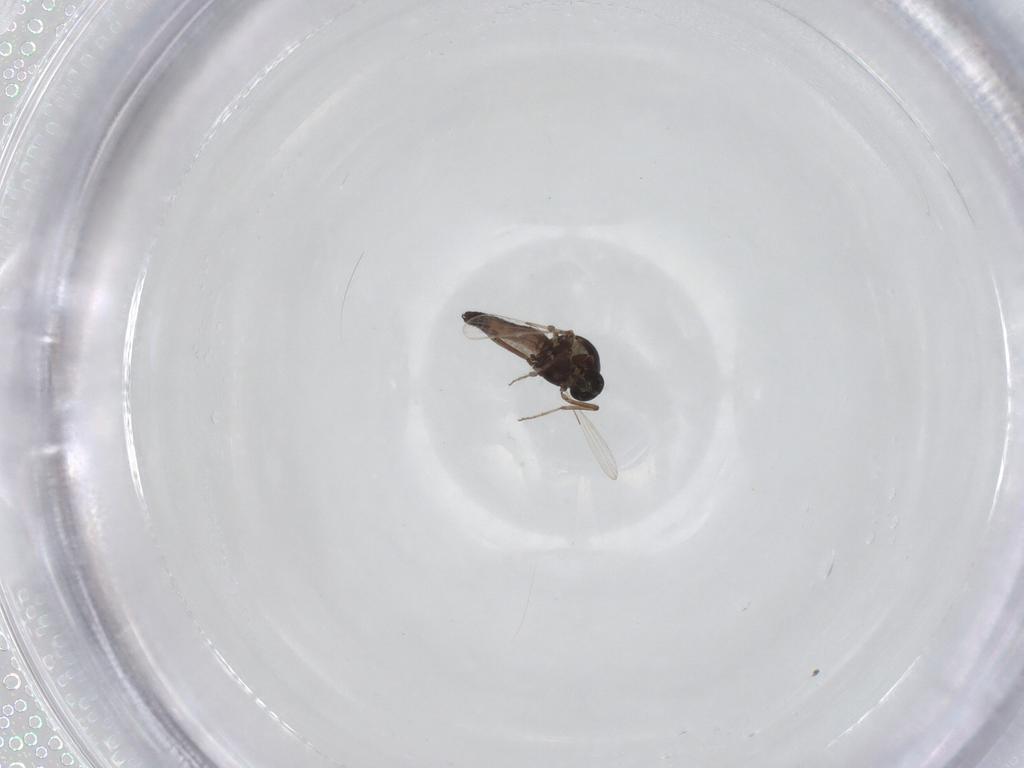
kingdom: Animalia
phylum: Arthropoda
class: Insecta
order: Diptera
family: Ceratopogonidae
